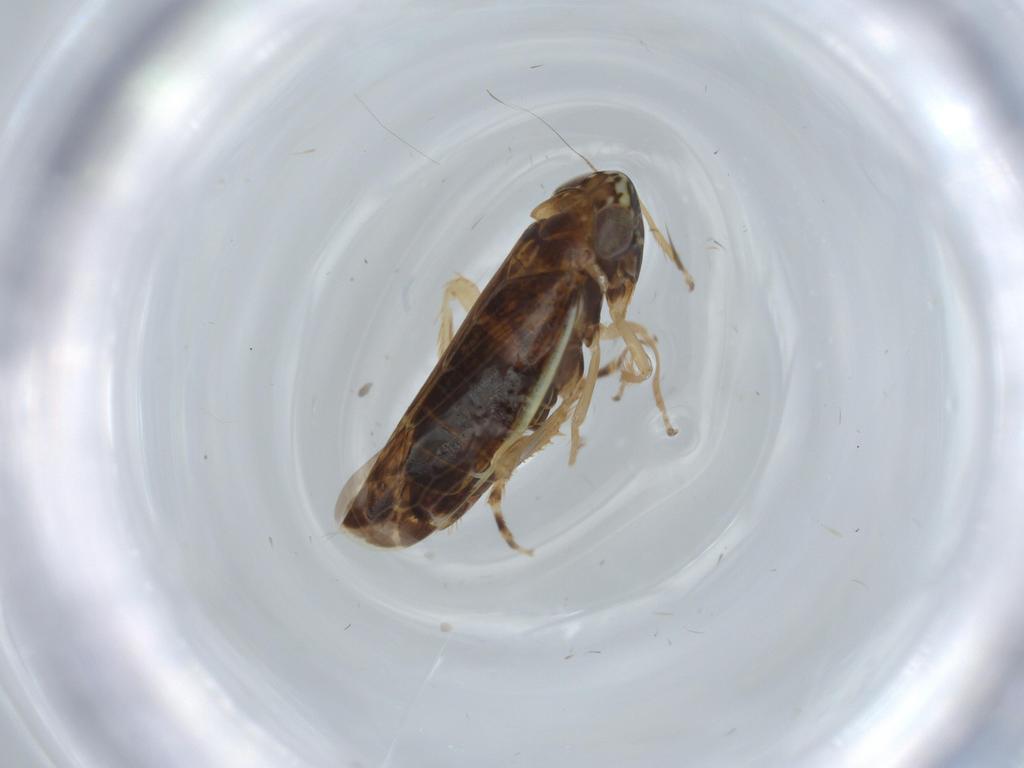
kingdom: Animalia
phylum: Arthropoda
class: Insecta
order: Hemiptera
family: Cicadellidae
